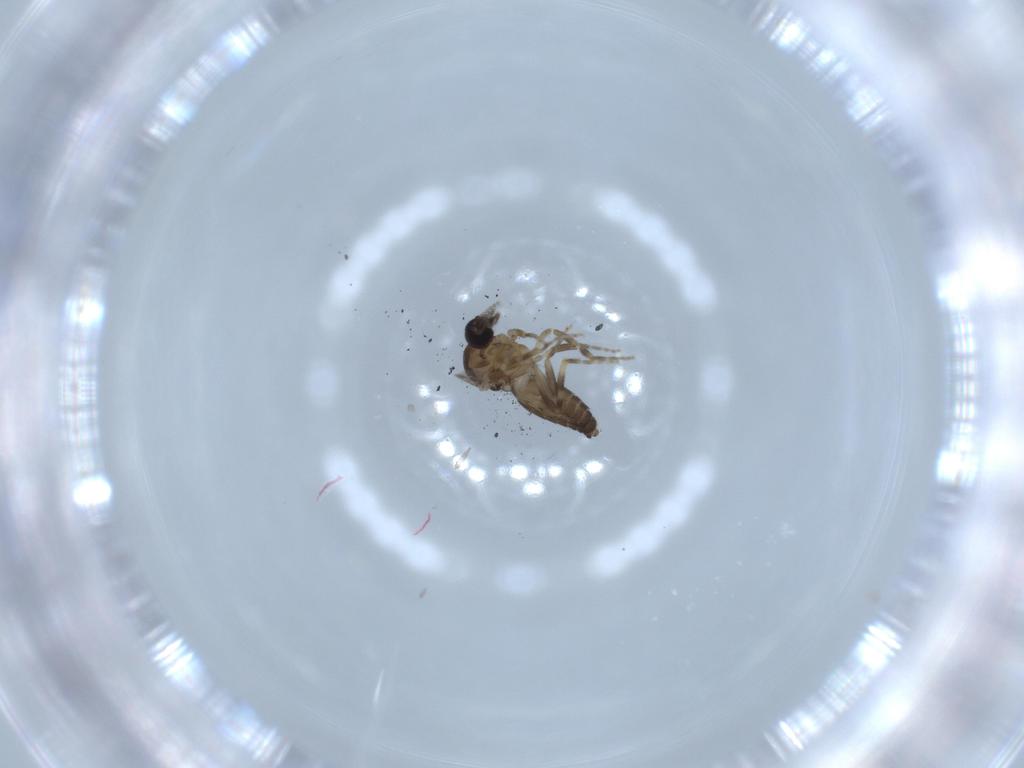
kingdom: Animalia
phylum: Arthropoda
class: Insecta
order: Diptera
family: Ceratopogonidae
